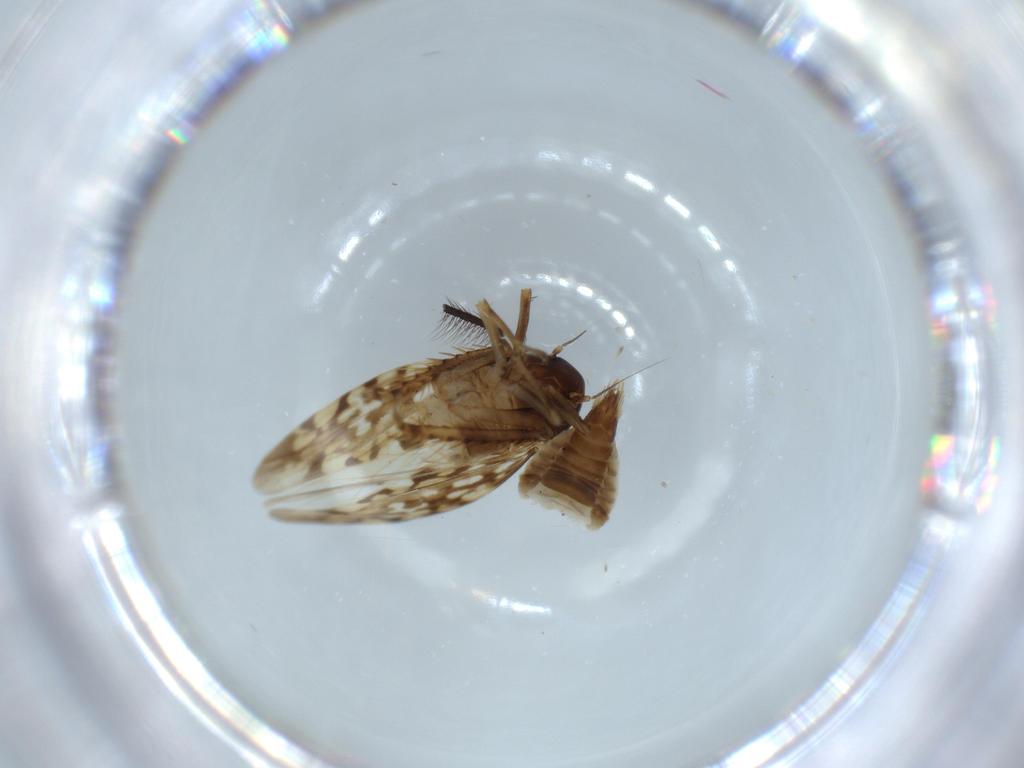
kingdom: Animalia
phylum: Arthropoda
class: Insecta
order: Hemiptera
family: Cicadellidae
